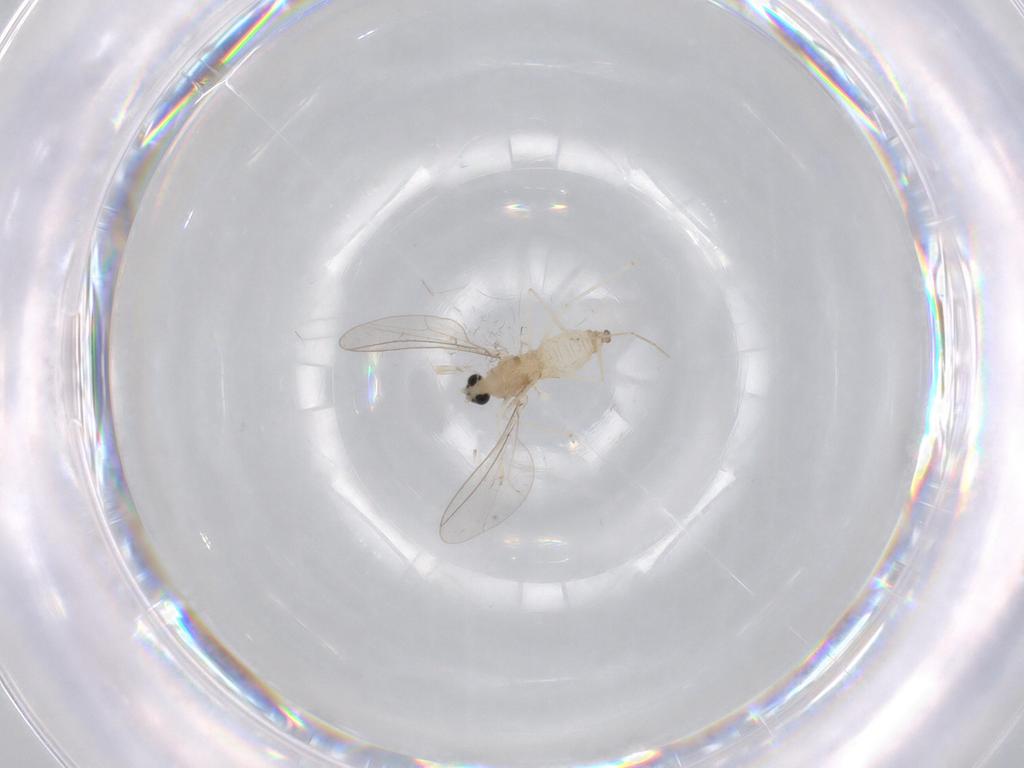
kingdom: Animalia
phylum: Arthropoda
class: Insecta
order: Diptera
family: Cecidomyiidae
